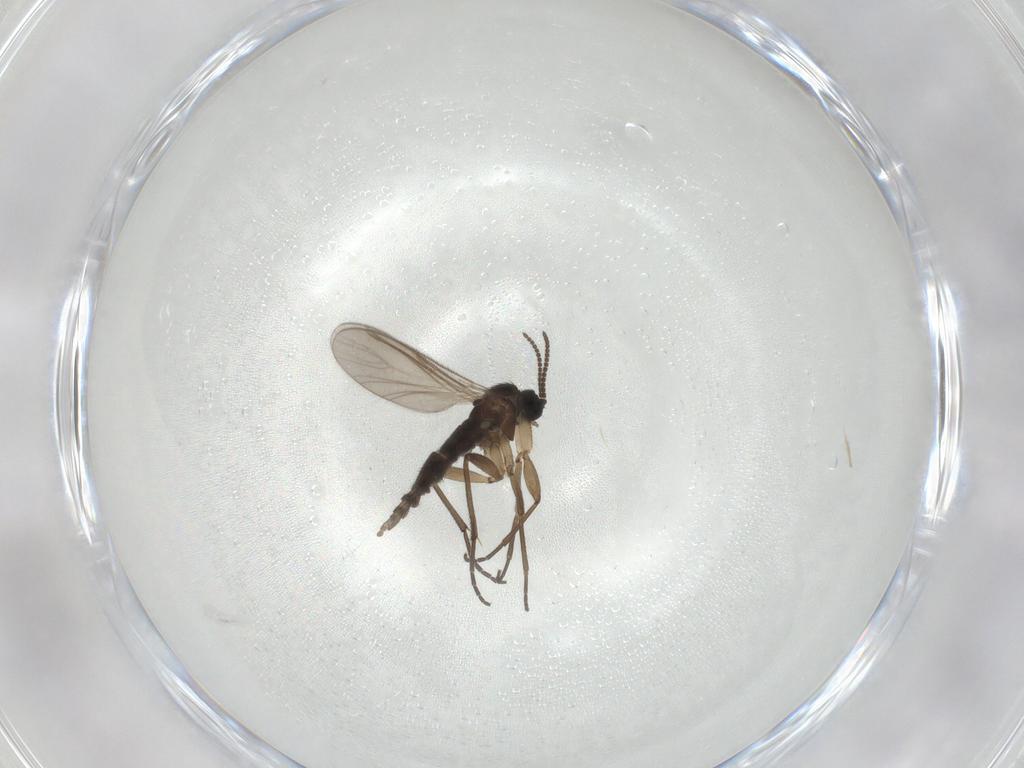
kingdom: Animalia
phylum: Arthropoda
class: Insecta
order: Diptera
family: Sciaridae
